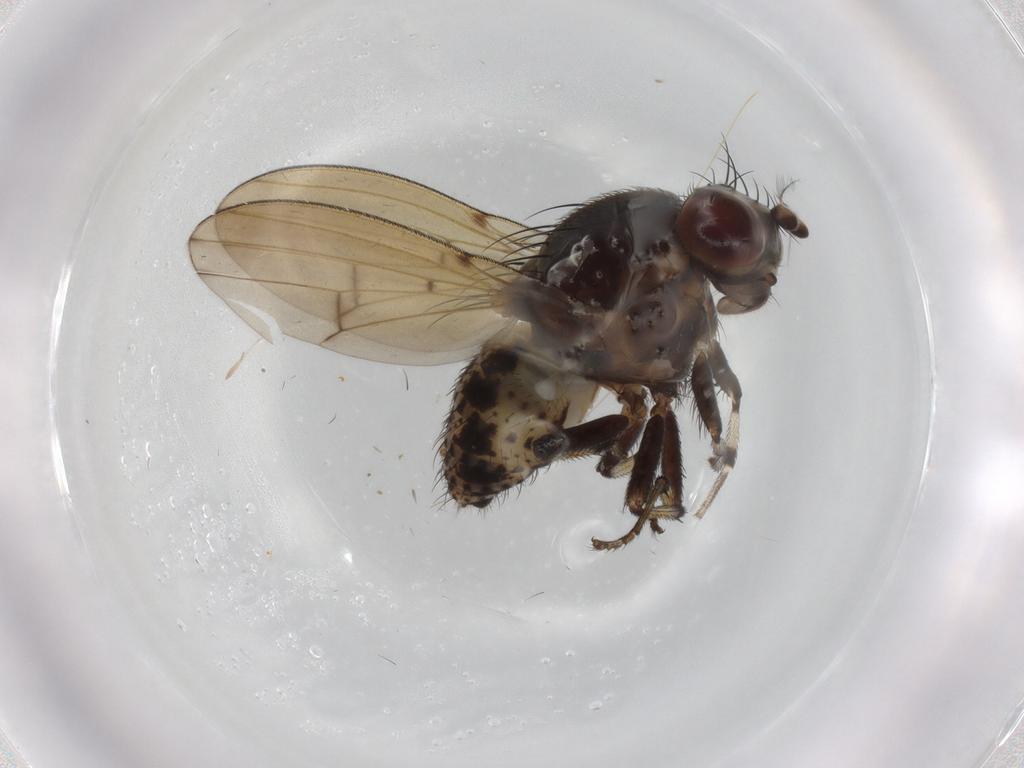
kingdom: Animalia
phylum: Arthropoda
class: Insecta
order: Diptera
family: Lauxaniidae
